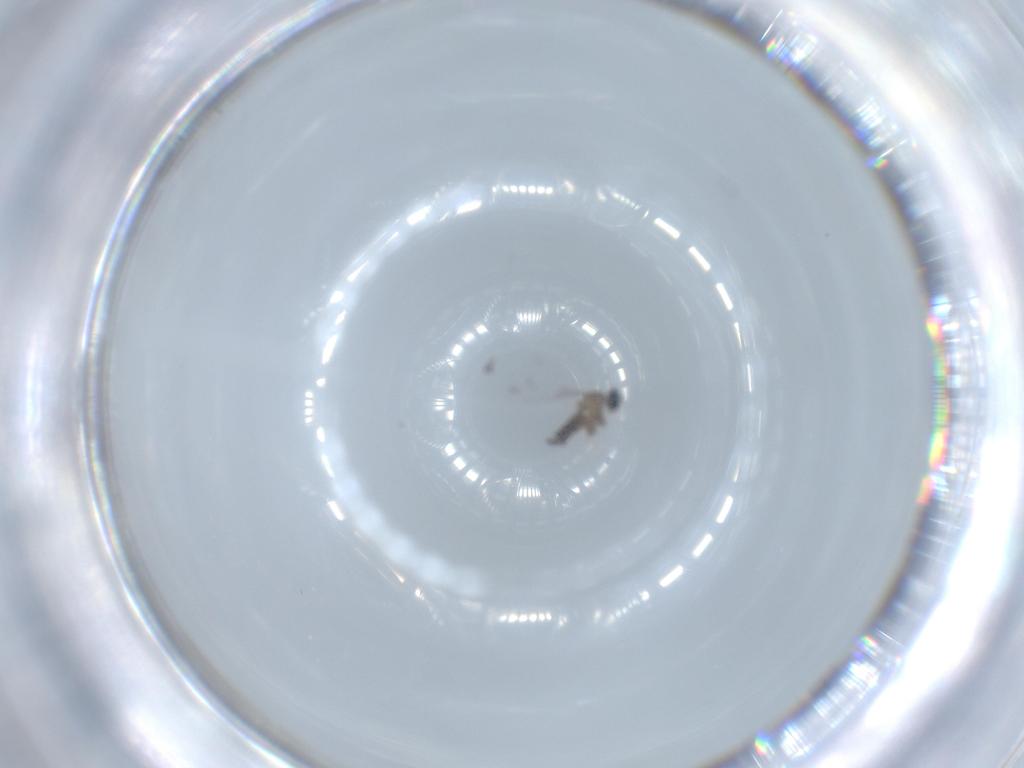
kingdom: Animalia
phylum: Arthropoda
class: Insecta
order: Diptera
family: Cecidomyiidae
